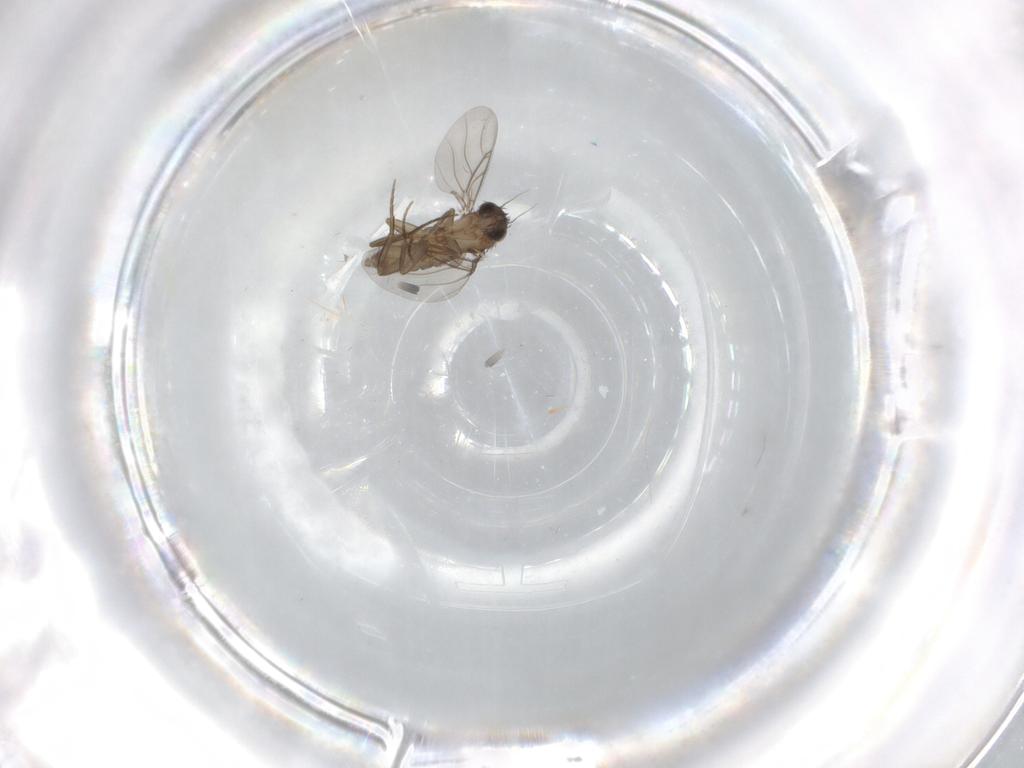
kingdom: Animalia
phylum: Arthropoda
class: Insecta
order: Diptera
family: Phoridae
